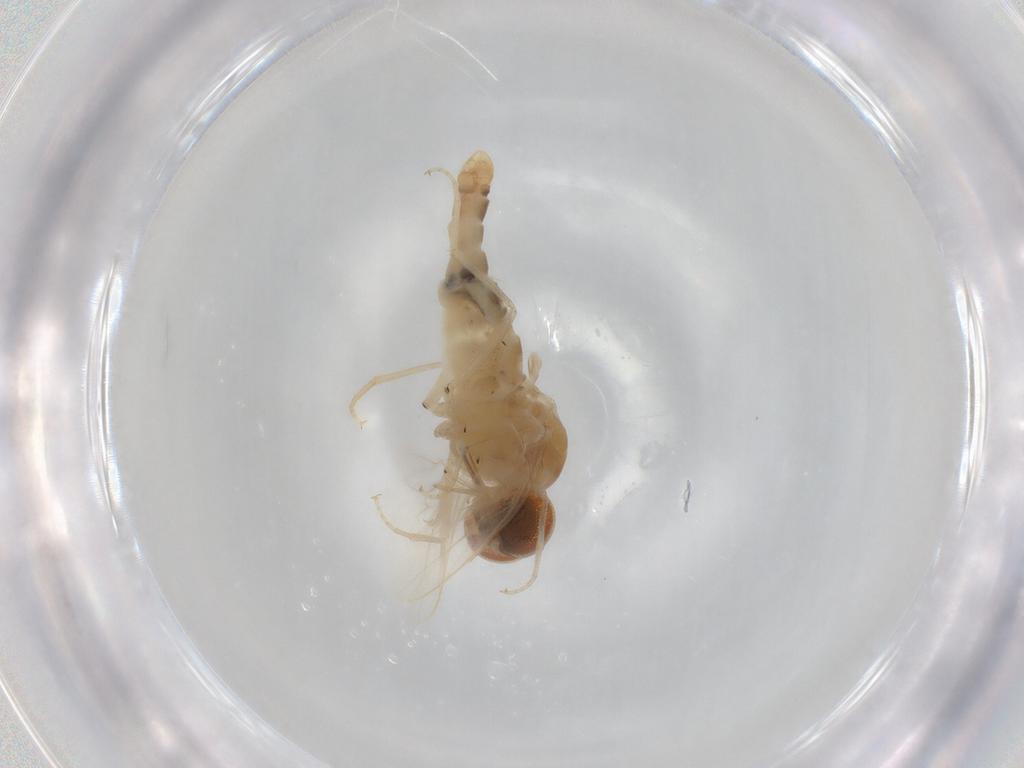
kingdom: Animalia
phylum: Arthropoda
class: Insecta
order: Diptera
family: Scenopinidae
